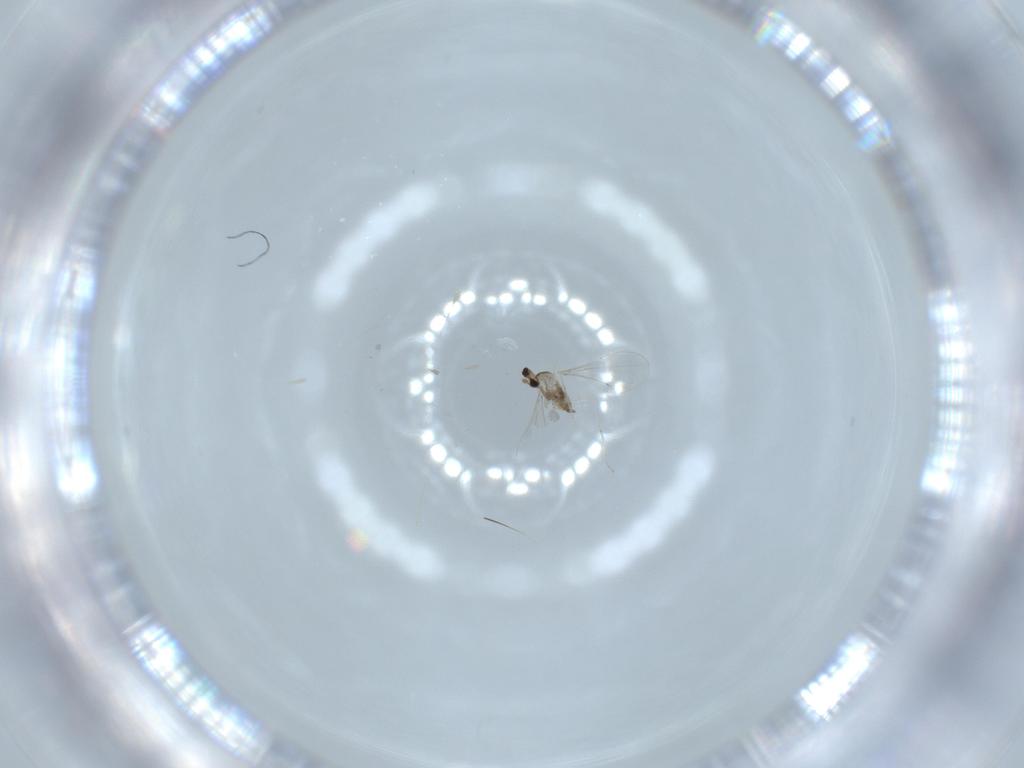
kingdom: Animalia
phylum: Arthropoda
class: Insecta
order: Diptera
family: Cecidomyiidae
